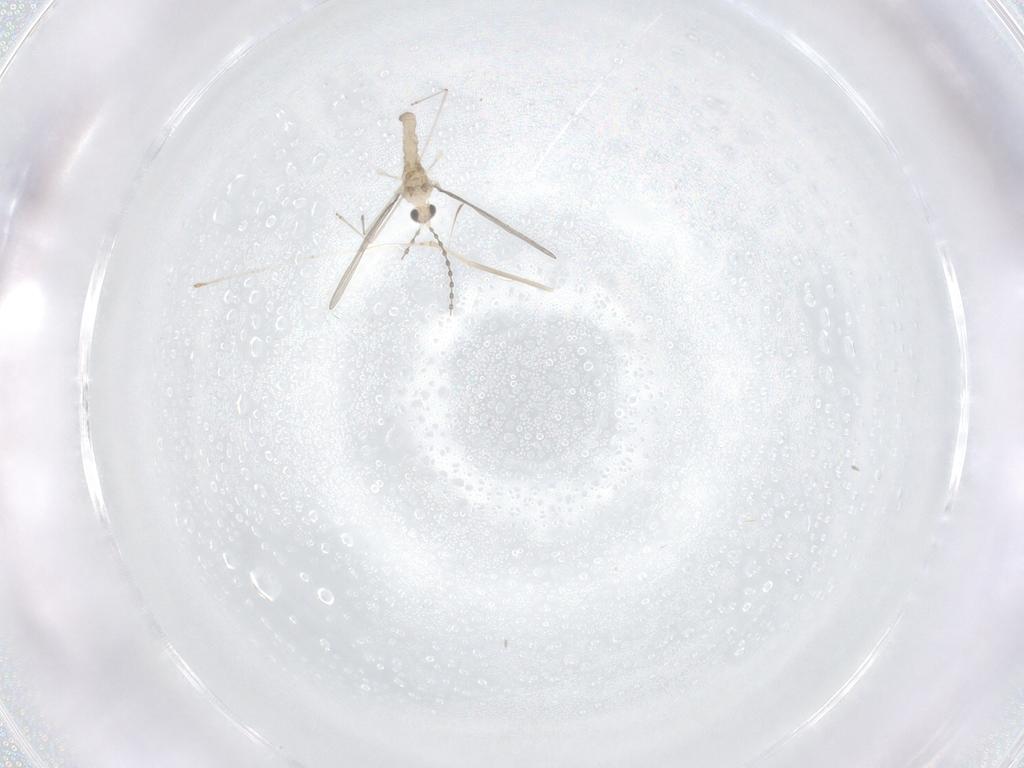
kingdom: Animalia
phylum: Arthropoda
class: Insecta
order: Diptera
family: Cecidomyiidae
